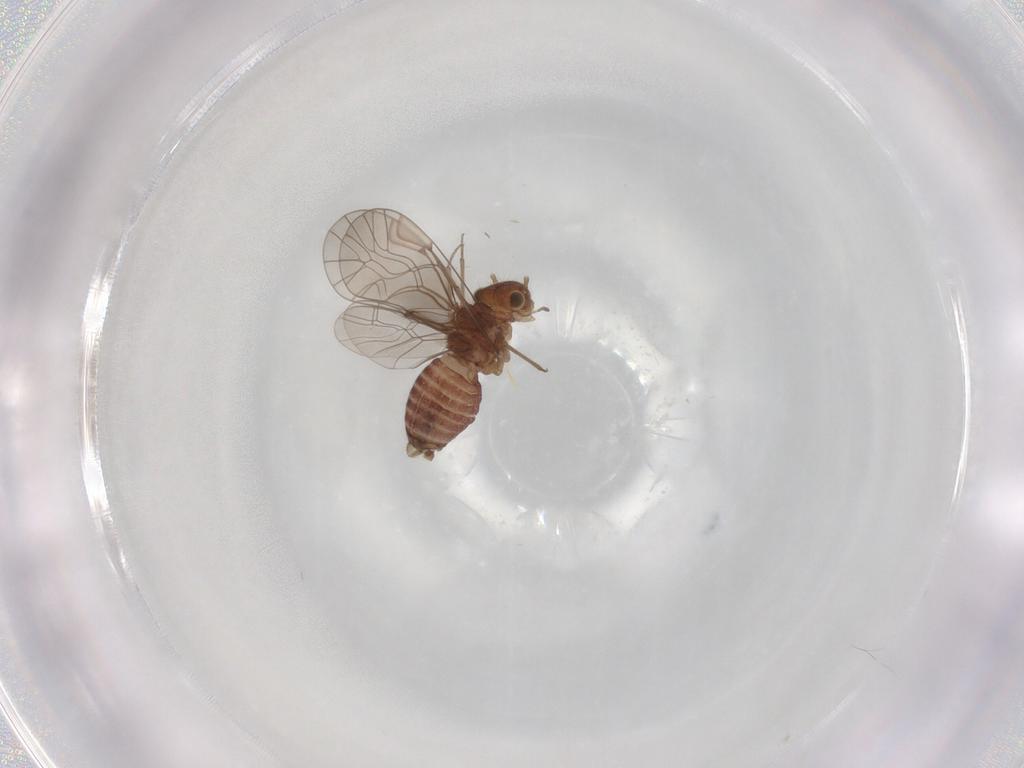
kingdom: Animalia
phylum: Arthropoda
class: Insecta
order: Psocodea
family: Lachesillidae
